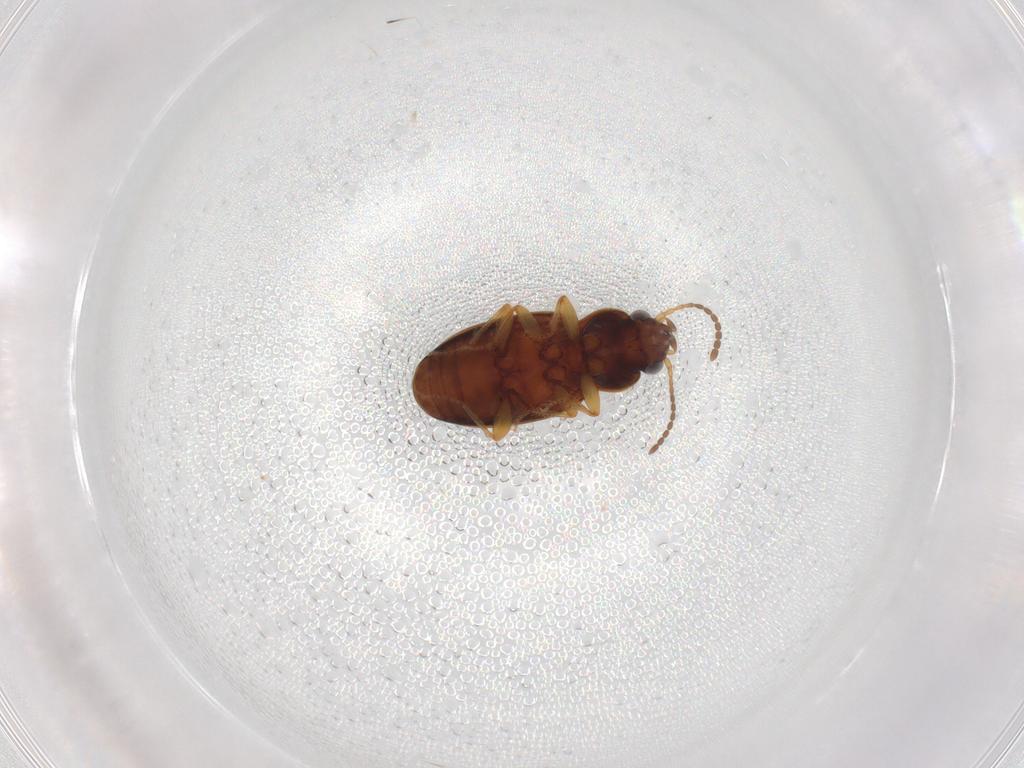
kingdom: Animalia
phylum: Arthropoda
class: Insecta
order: Coleoptera
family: Carabidae
